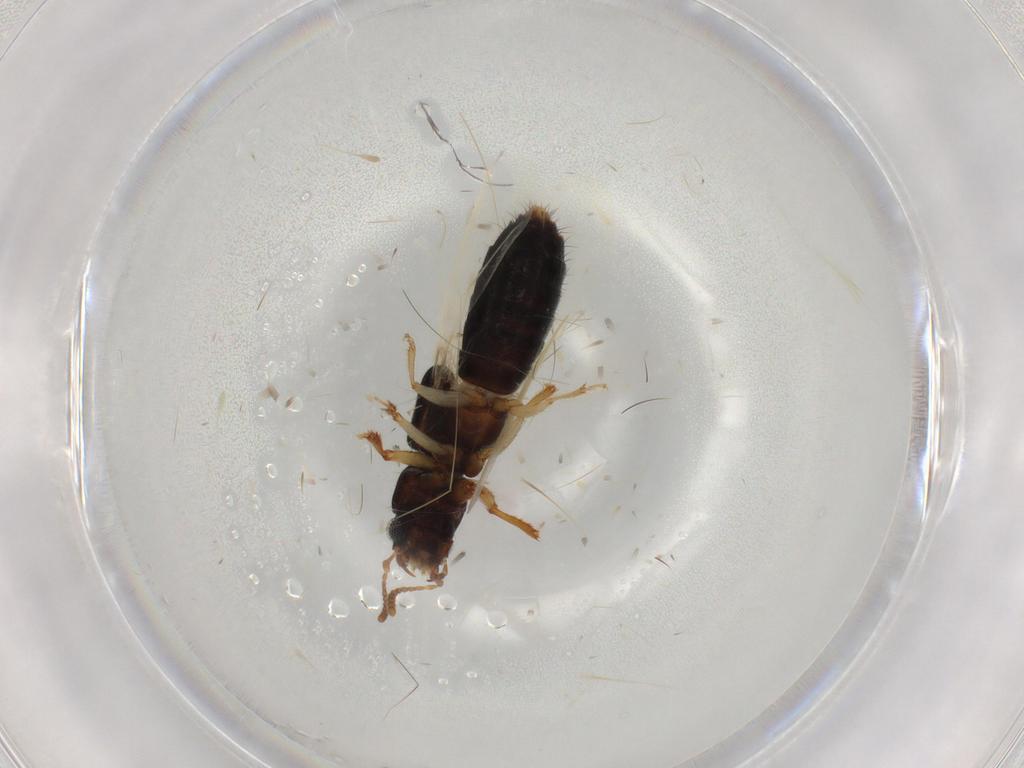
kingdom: Animalia
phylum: Arthropoda
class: Insecta
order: Coleoptera
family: Staphylinidae
